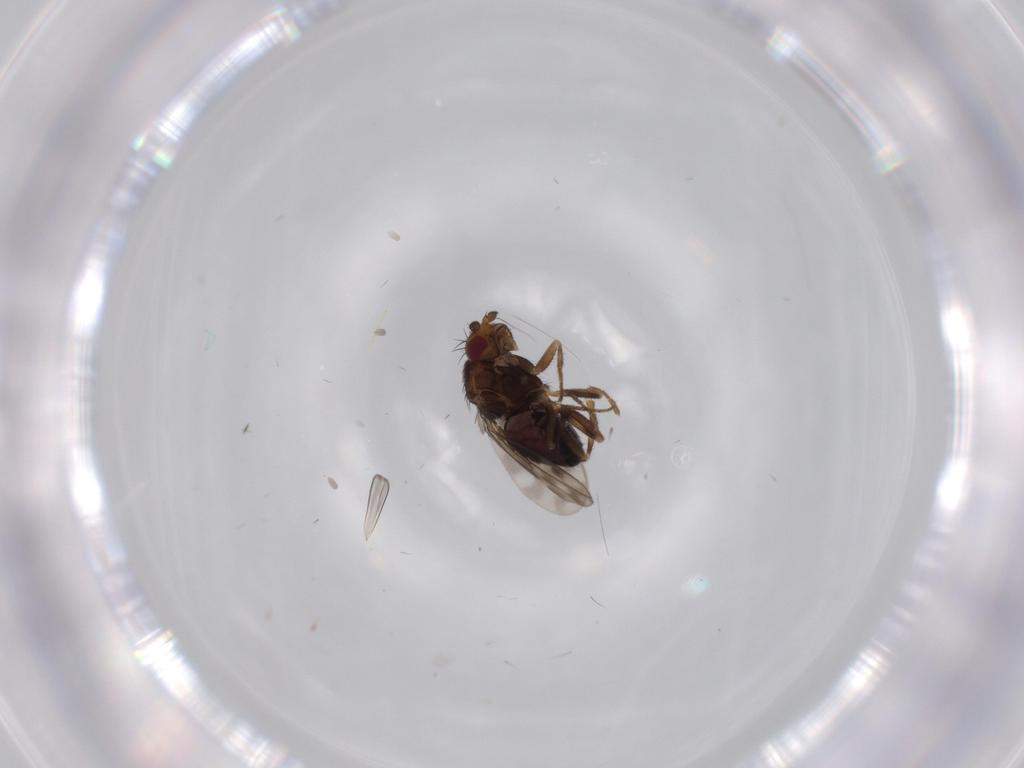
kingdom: Animalia
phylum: Arthropoda
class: Insecta
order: Diptera
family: Sphaeroceridae
